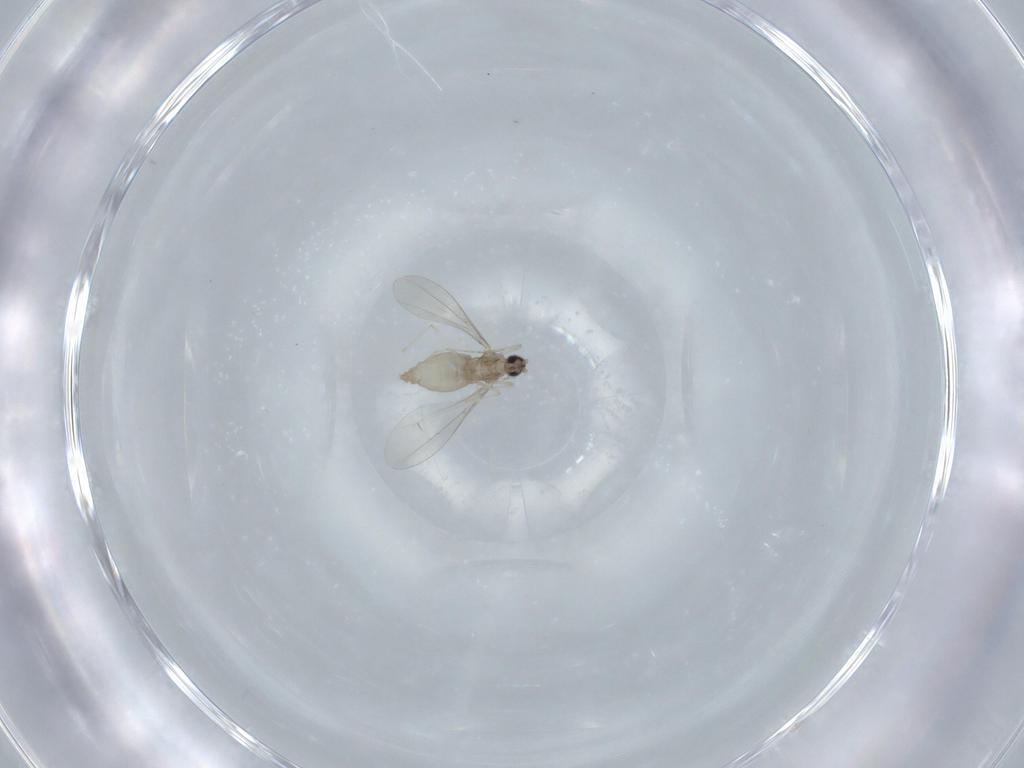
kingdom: Animalia
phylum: Arthropoda
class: Insecta
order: Diptera
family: Cecidomyiidae
